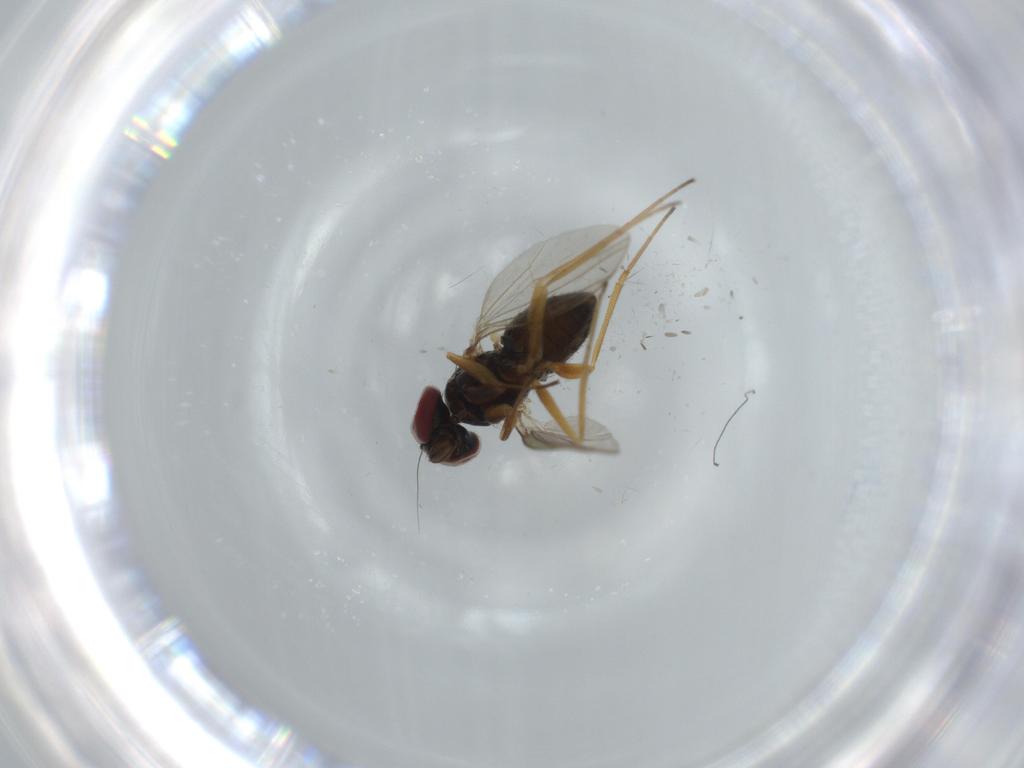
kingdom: Animalia
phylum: Arthropoda
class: Insecta
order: Diptera
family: Dolichopodidae
